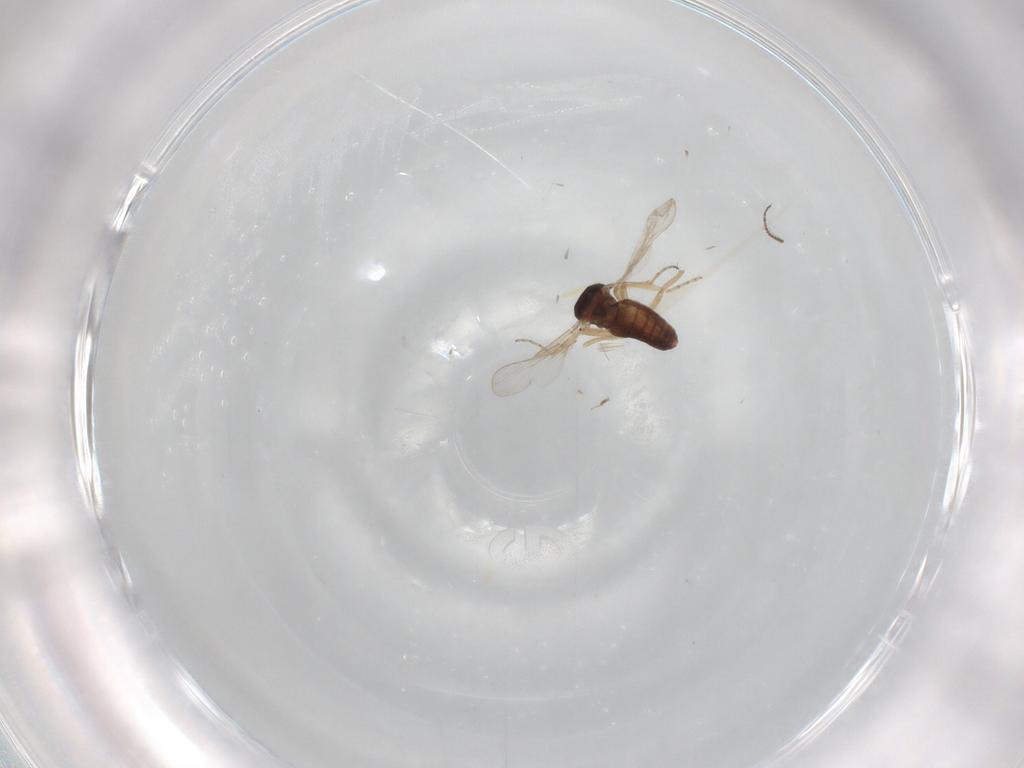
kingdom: Animalia
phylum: Arthropoda
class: Insecta
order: Diptera
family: Ceratopogonidae
